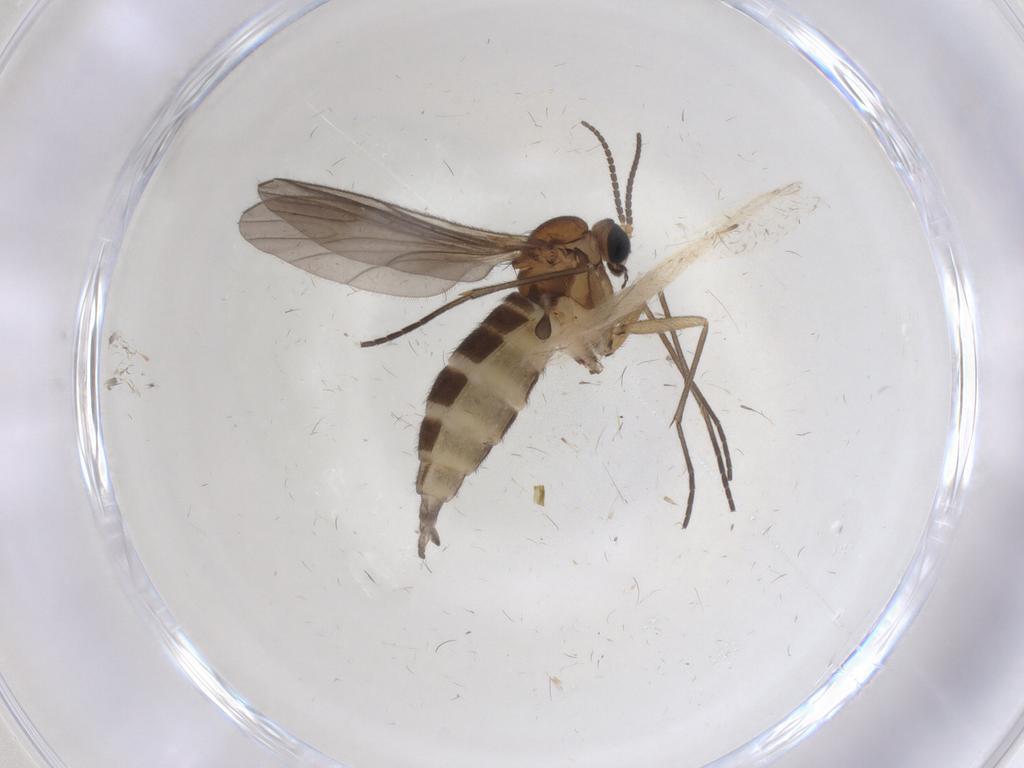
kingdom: Animalia
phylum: Arthropoda
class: Insecta
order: Diptera
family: Sciaridae
